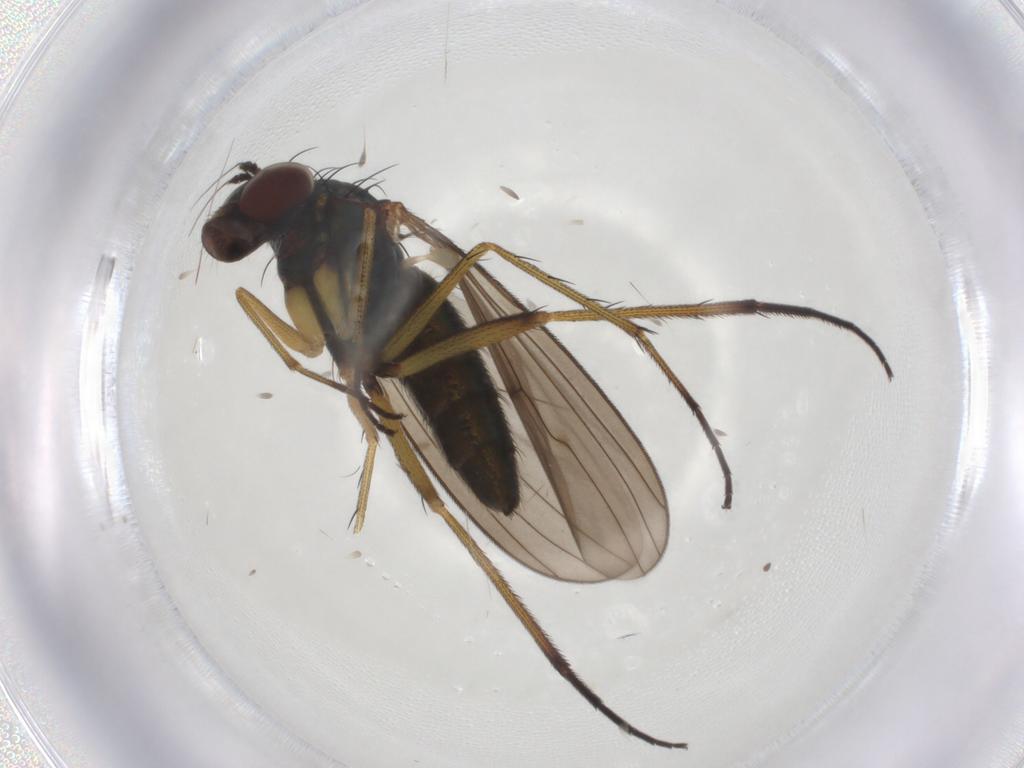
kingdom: Animalia
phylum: Arthropoda
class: Insecta
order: Diptera
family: Dolichopodidae
